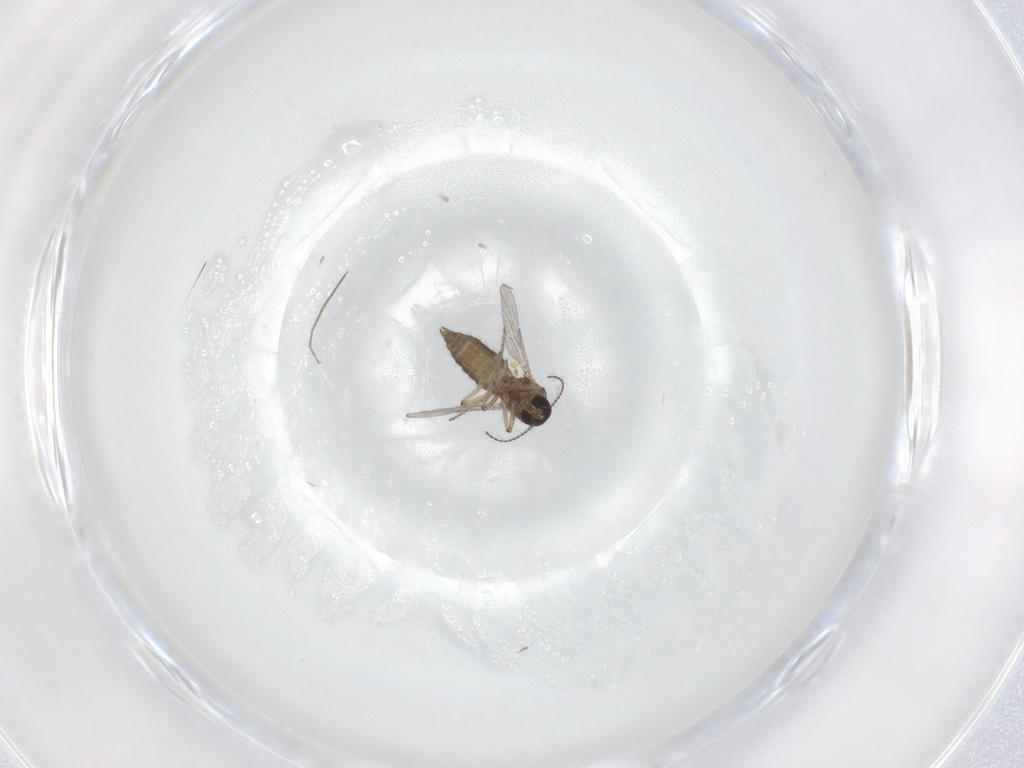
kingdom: Animalia
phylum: Arthropoda
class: Insecta
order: Diptera
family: Ceratopogonidae
